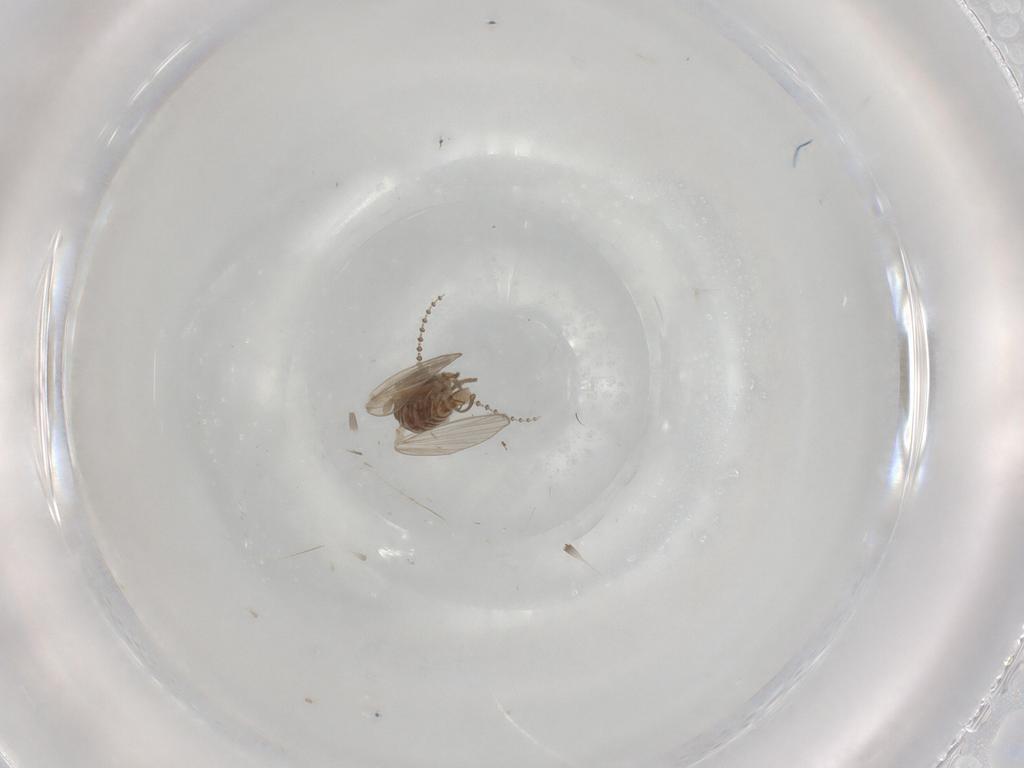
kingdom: Animalia
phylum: Arthropoda
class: Insecta
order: Diptera
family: Psychodidae
